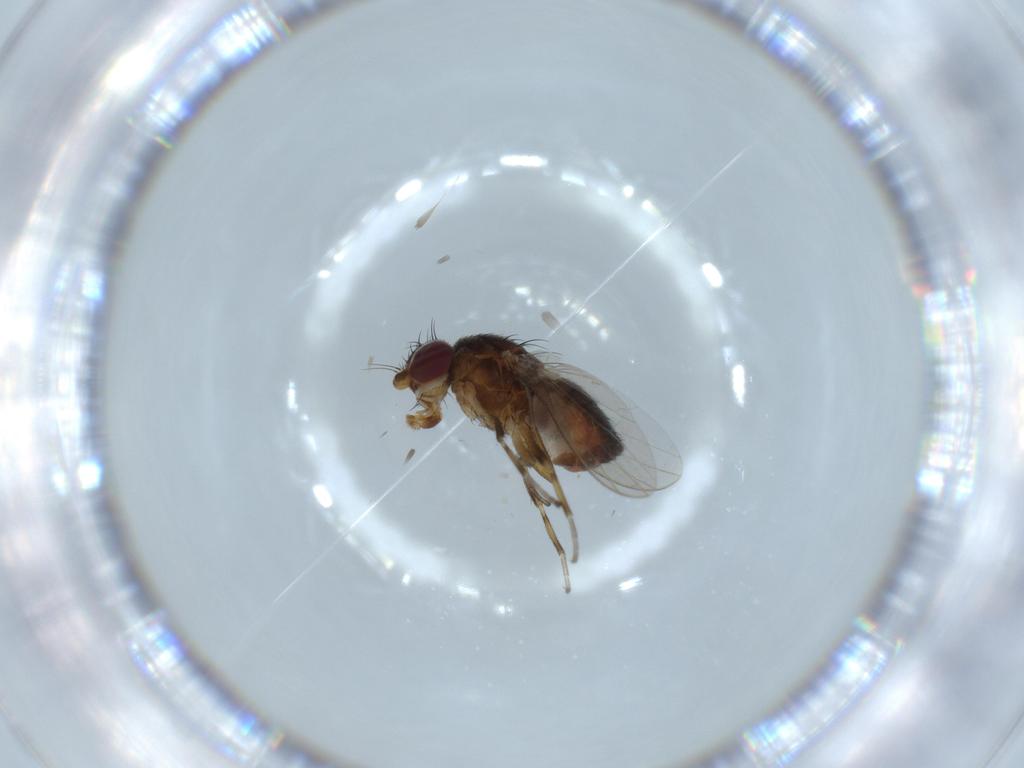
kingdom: Animalia
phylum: Arthropoda
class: Insecta
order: Diptera
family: Heleomyzidae
